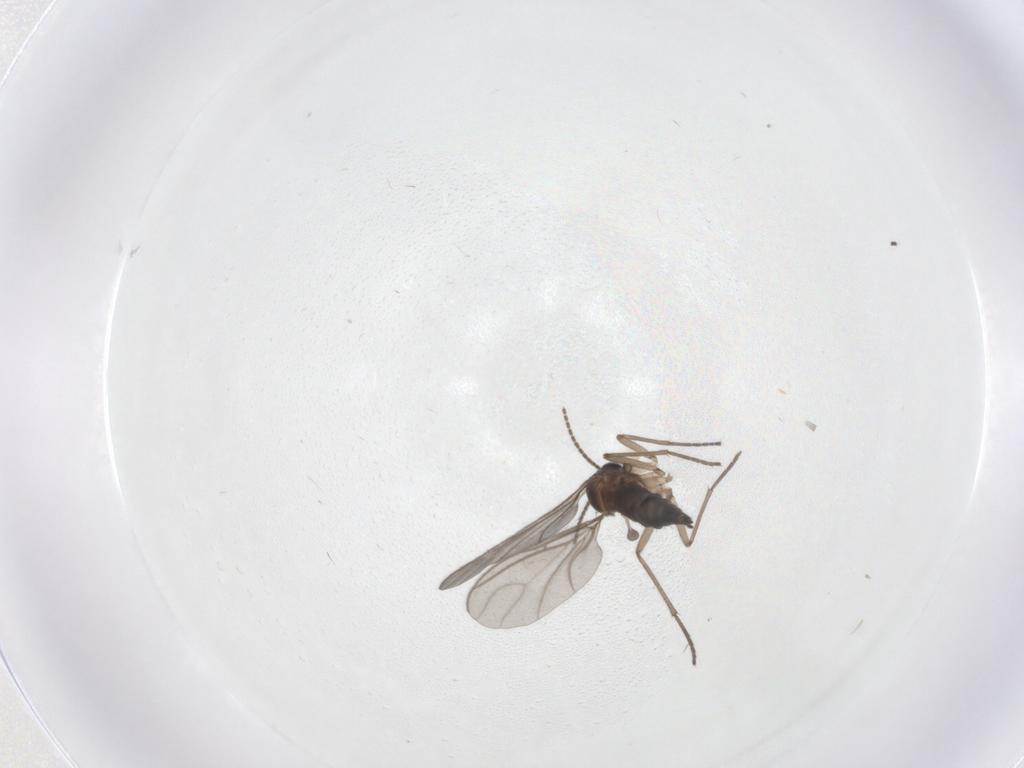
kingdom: Animalia
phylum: Arthropoda
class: Insecta
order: Diptera
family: Sciaridae
